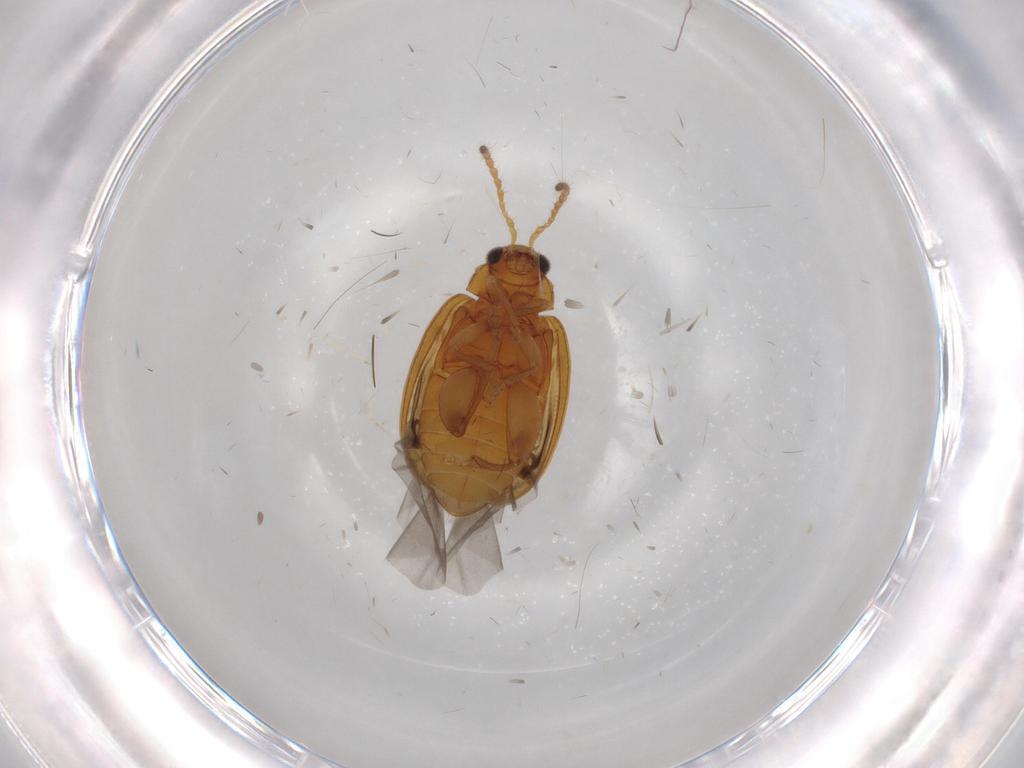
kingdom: Animalia
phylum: Arthropoda
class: Insecta
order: Coleoptera
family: Chrysomelidae
